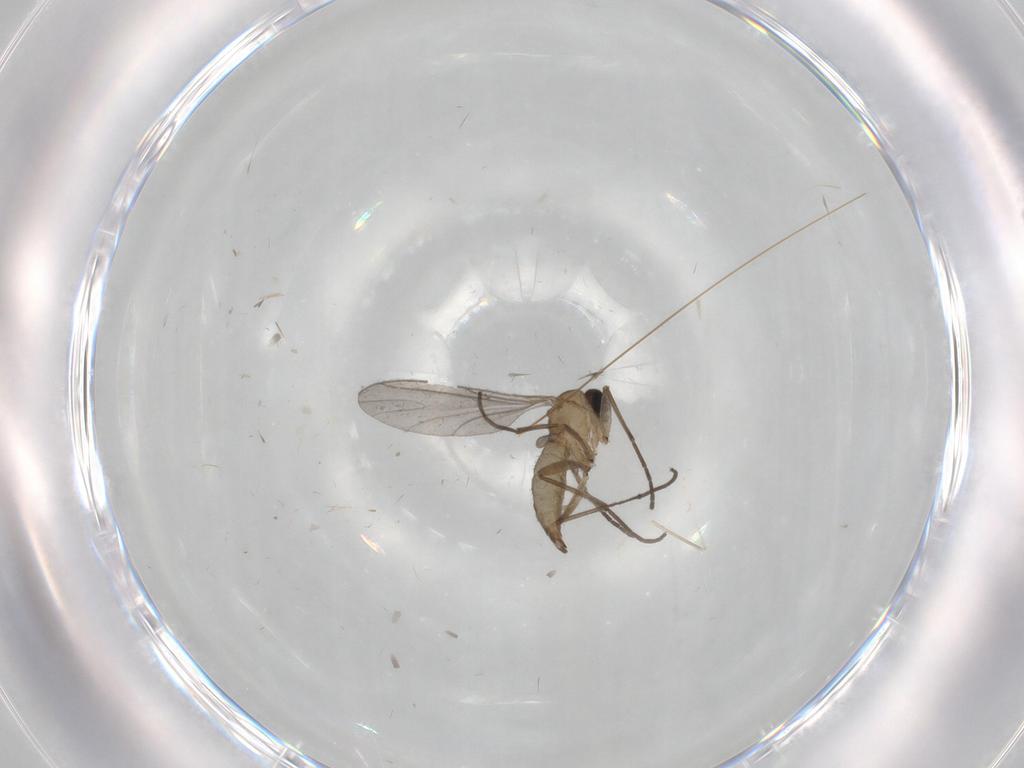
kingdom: Animalia
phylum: Arthropoda
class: Insecta
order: Diptera
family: Sciaridae
